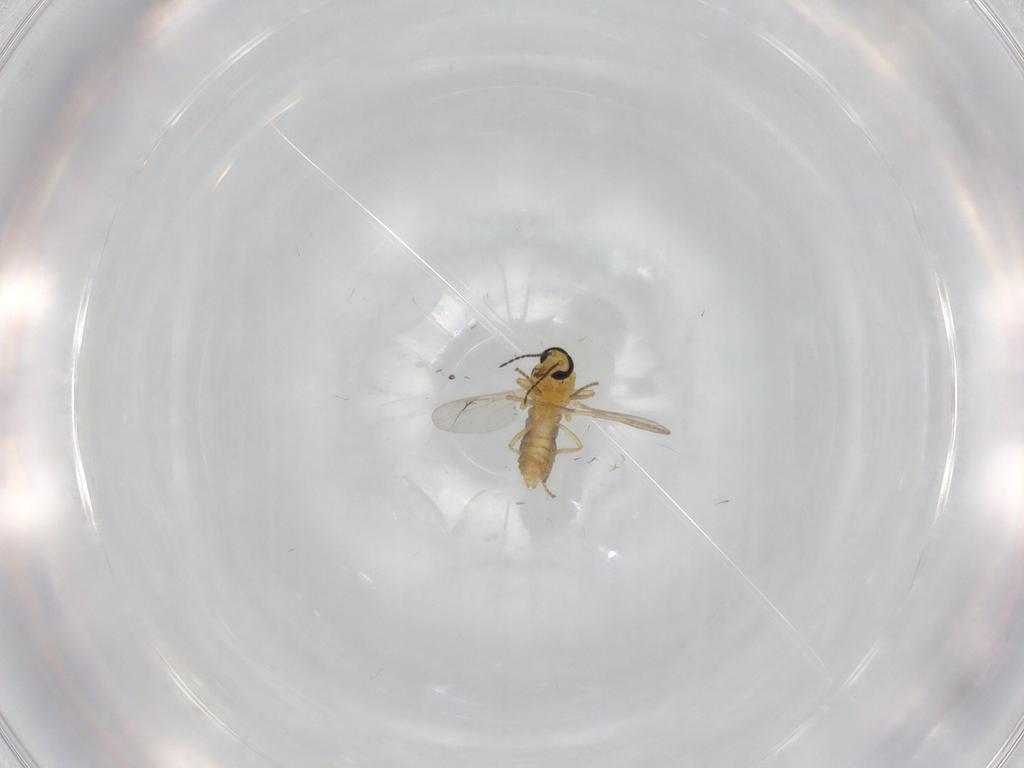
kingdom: Animalia
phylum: Arthropoda
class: Insecta
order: Diptera
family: Ceratopogonidae
